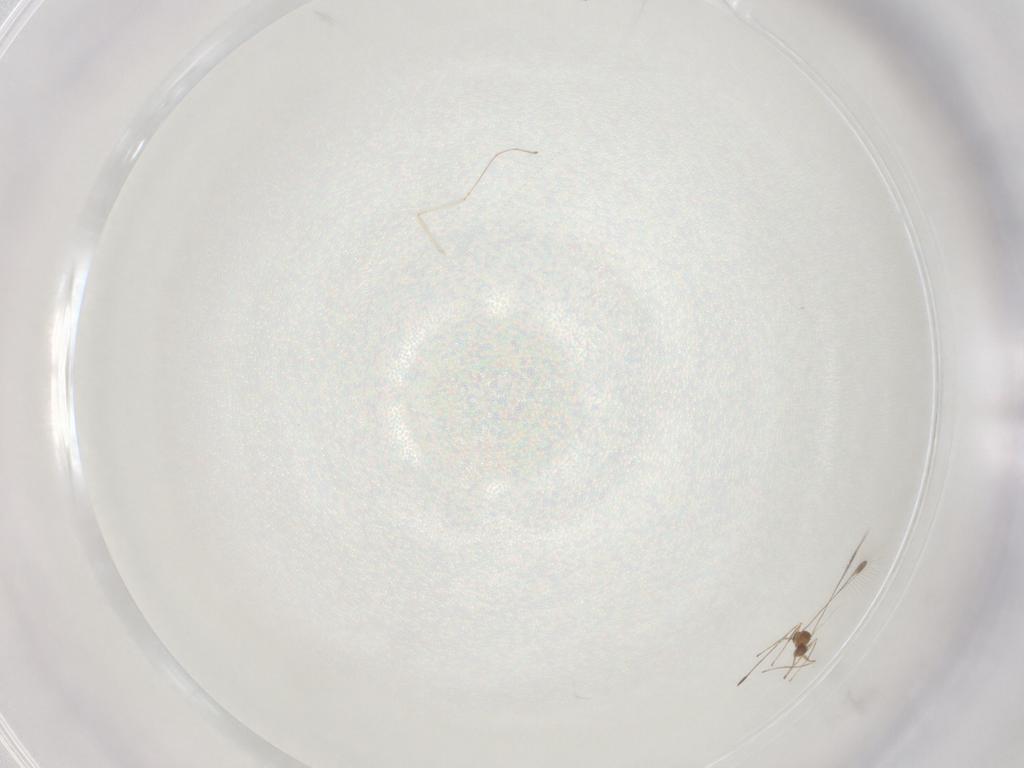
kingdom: Animalia
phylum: Arthropoda
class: Insecta
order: Hymenoptera
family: Mymaridae
